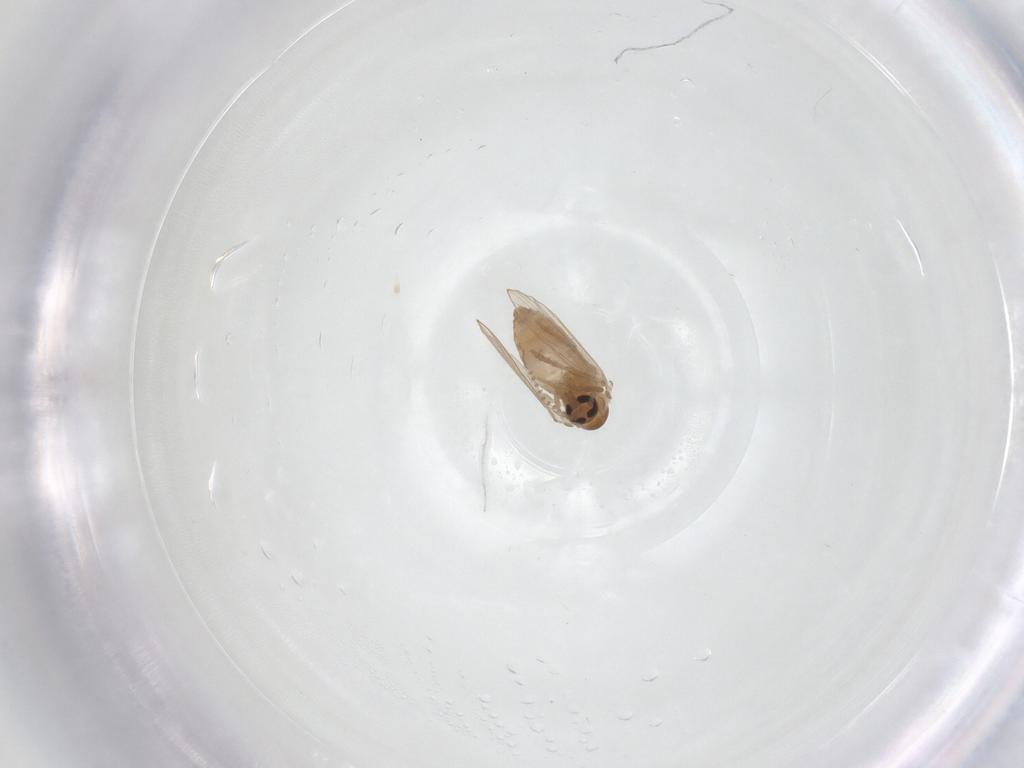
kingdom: Animalia
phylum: Arthropoda
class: Insecta
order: Diptera
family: Psychodidae
